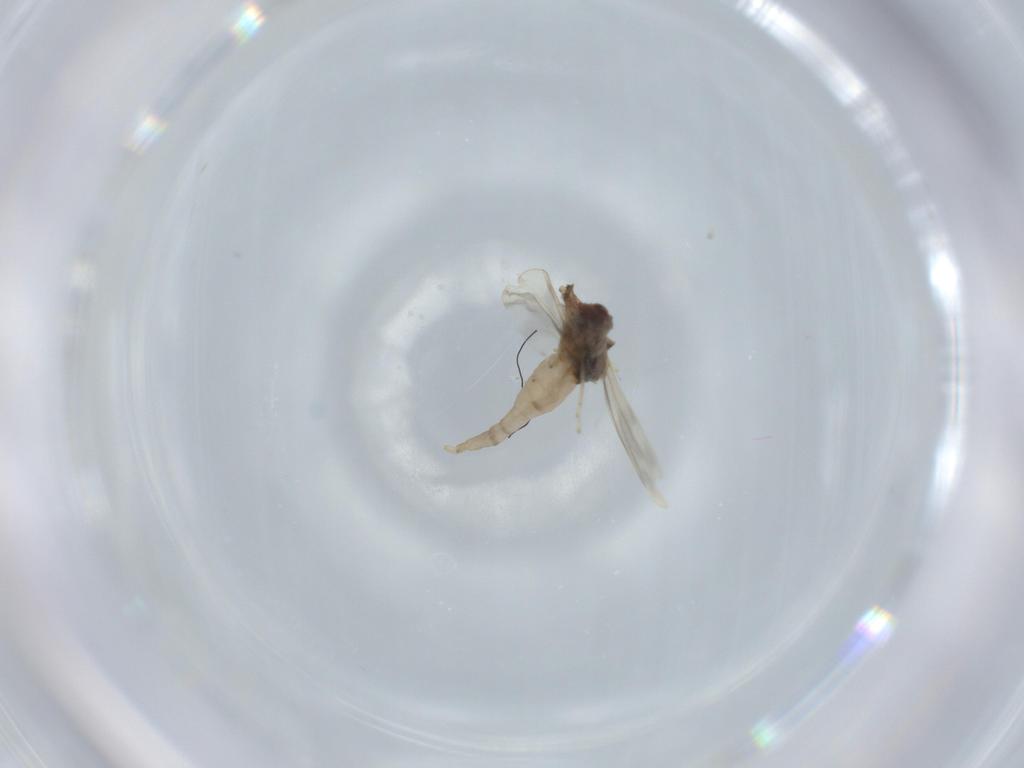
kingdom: Animalia
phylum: Arthropoda
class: Insecta
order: Diptera
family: Cecidomyiidae
